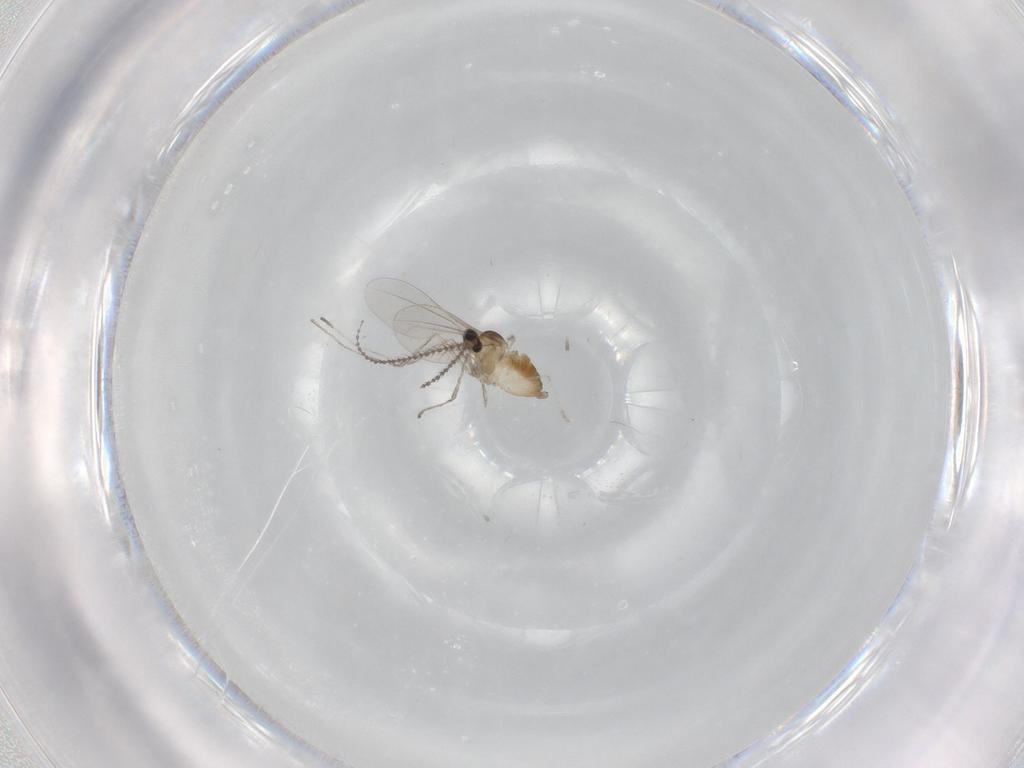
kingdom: Animalia
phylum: Arthropoda
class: Insecta
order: Diptera
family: Cecidomyiidae
